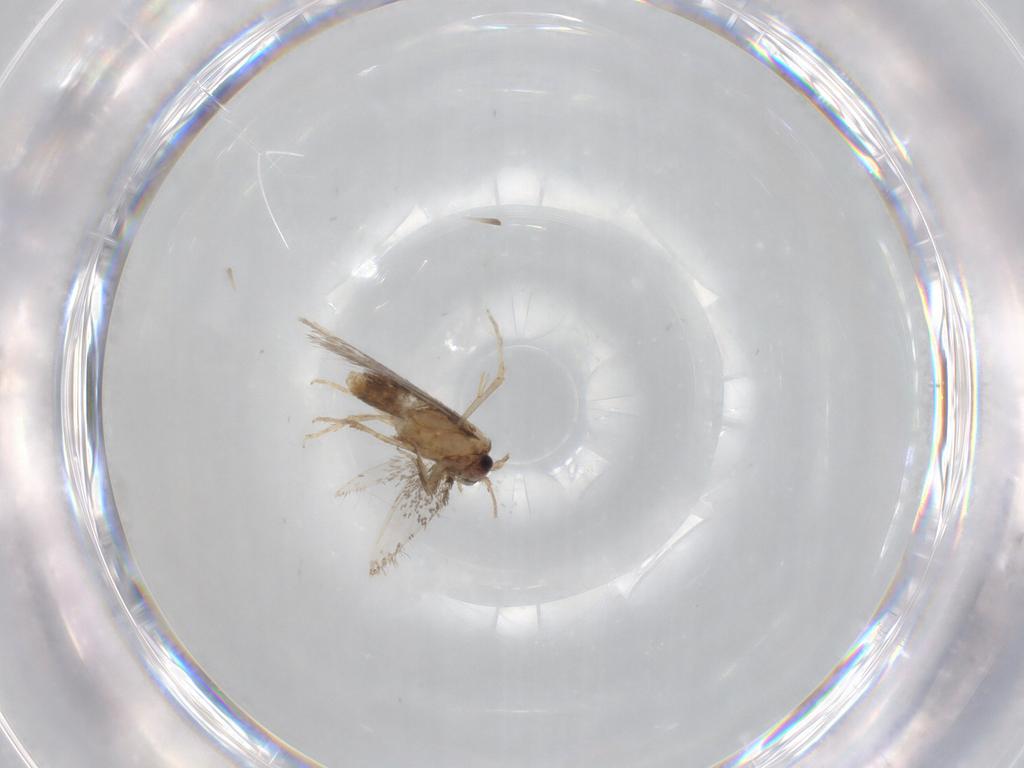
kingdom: Animalia
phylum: Arthropoda
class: Insecta
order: Lepidoptera
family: Nepticulidae
